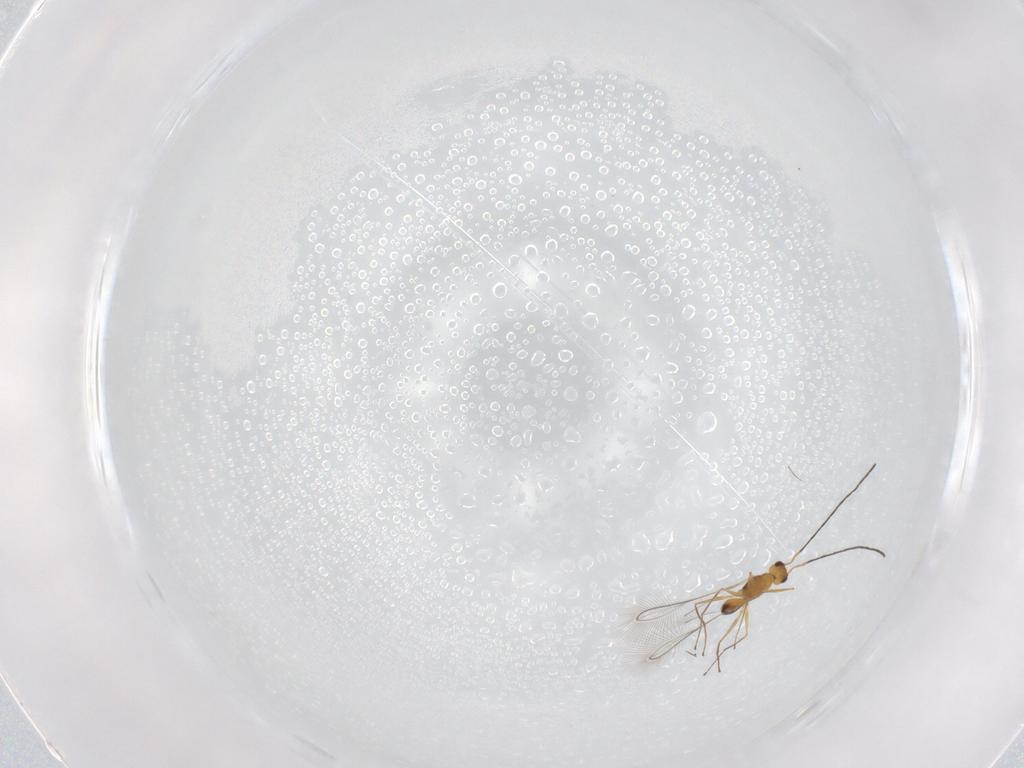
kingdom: Animalia
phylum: Arthropoda
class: Insecta
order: Hymenoptera
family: Mymaridae
